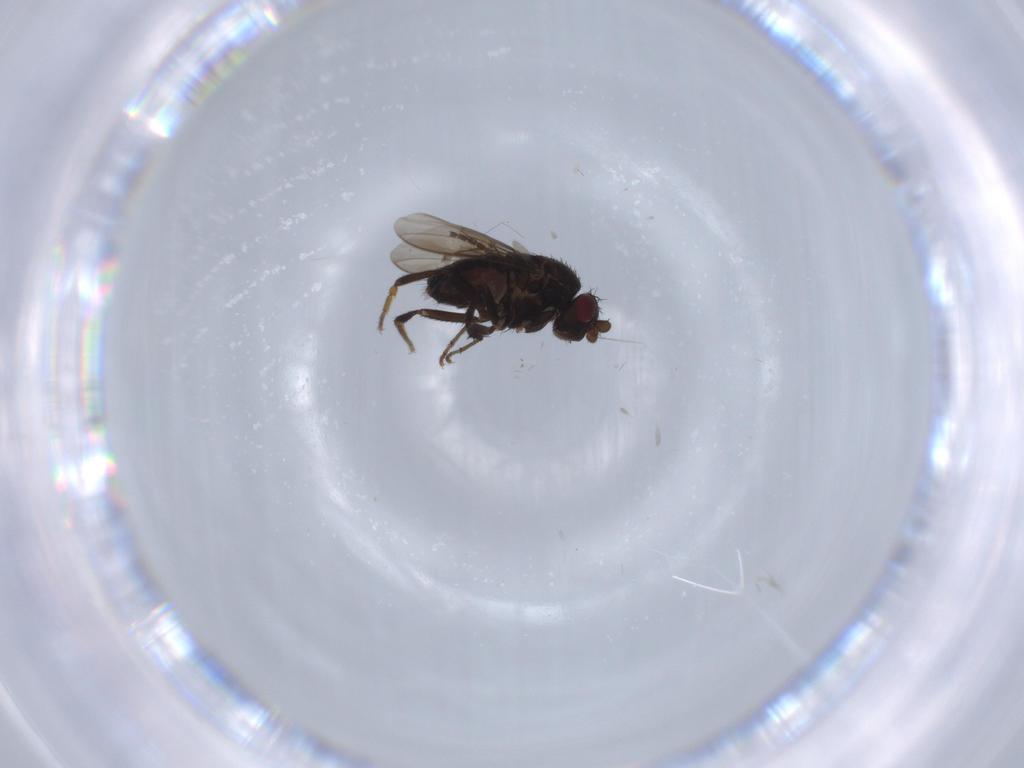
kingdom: Animalia
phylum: Arthropoda
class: Insecta
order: Diptera
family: Sphaeroceridae
